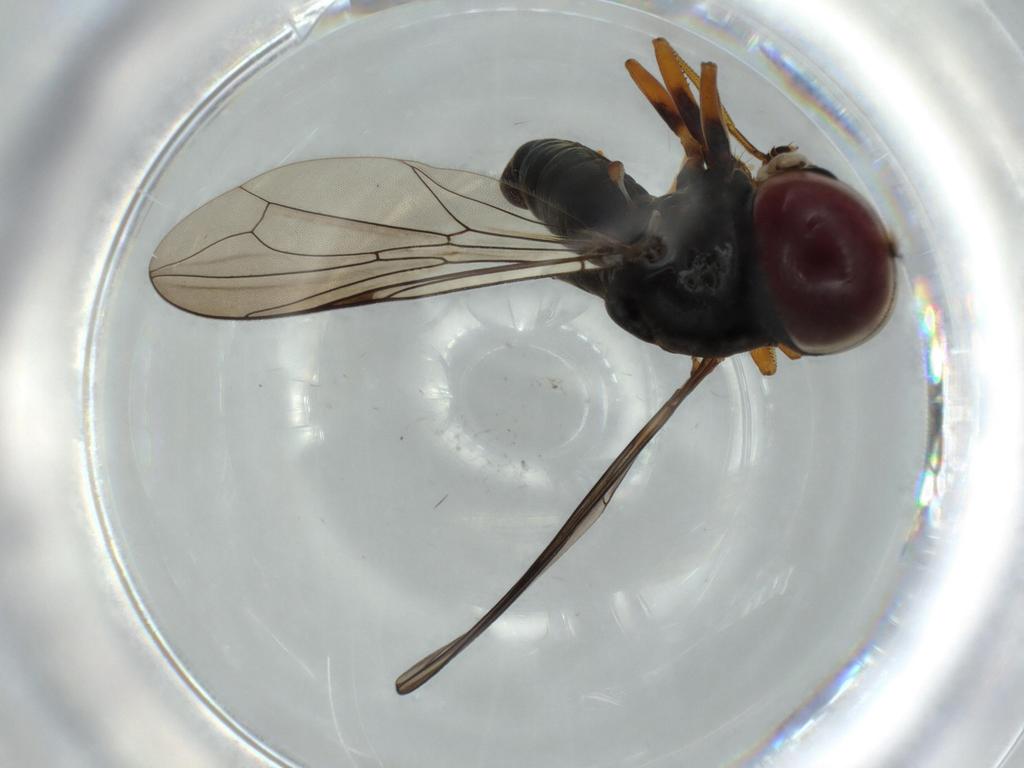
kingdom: Animalia
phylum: Arthropoda
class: Insecta
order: Diptera
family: Pipunculidae
